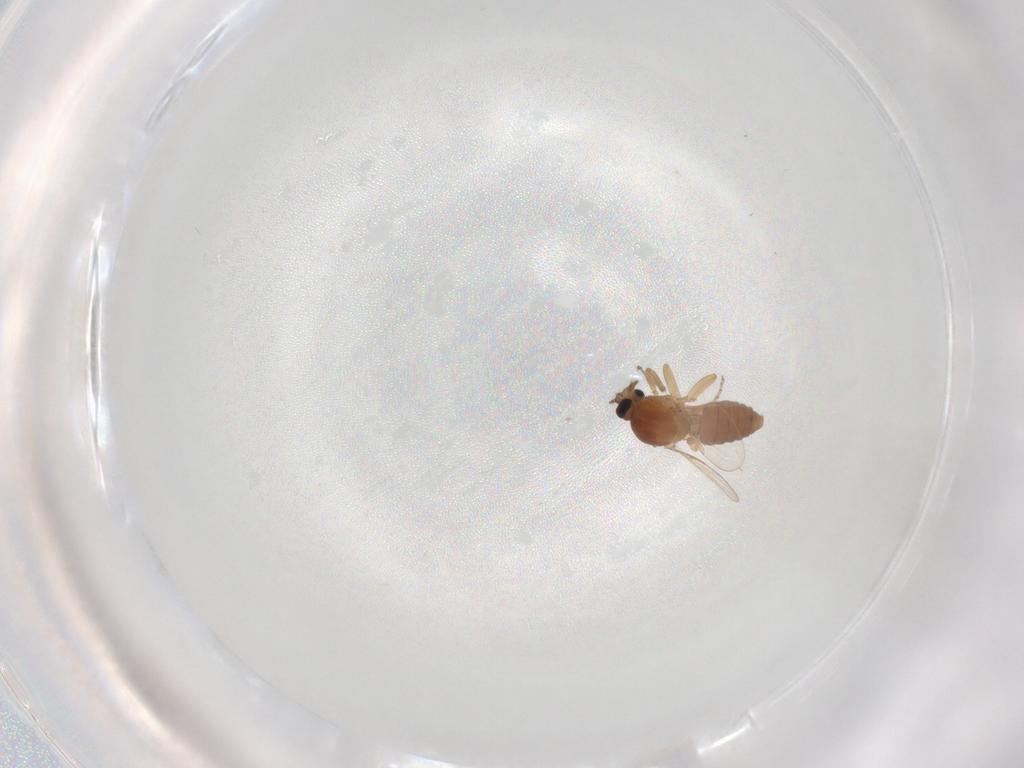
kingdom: Animalia
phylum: Arthropoda
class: Insecta
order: Diptera
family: Ceratopogonidae
